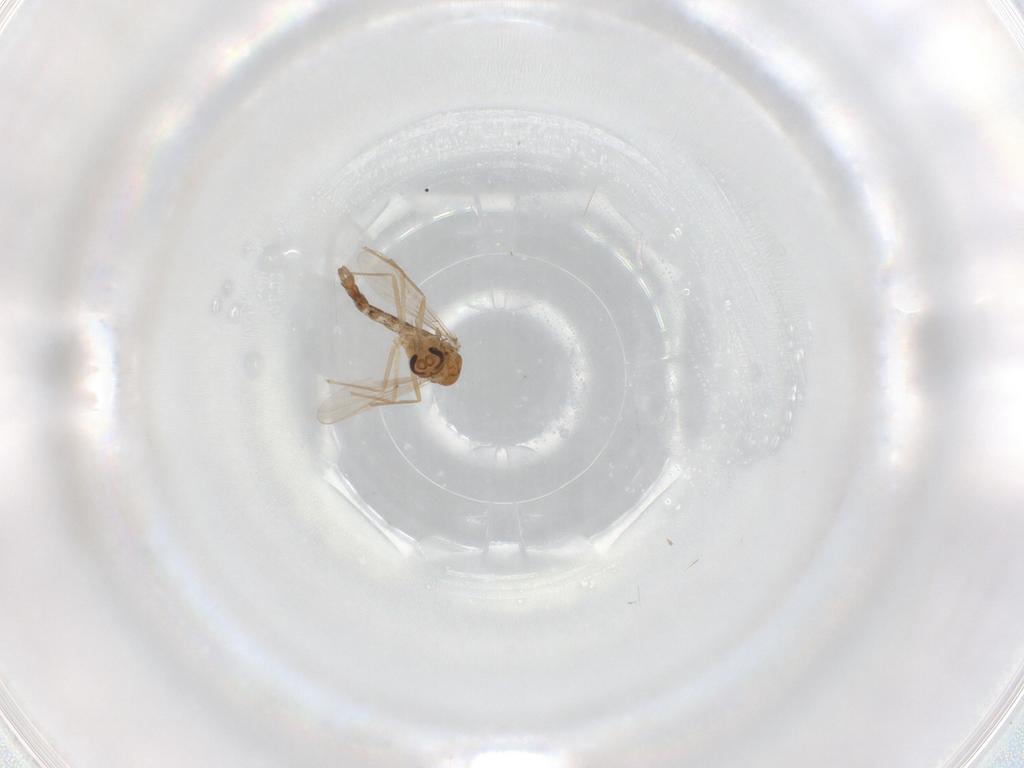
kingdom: Animalia
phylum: Arthropoda
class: Insecta
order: Diptera
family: Chironomidae
